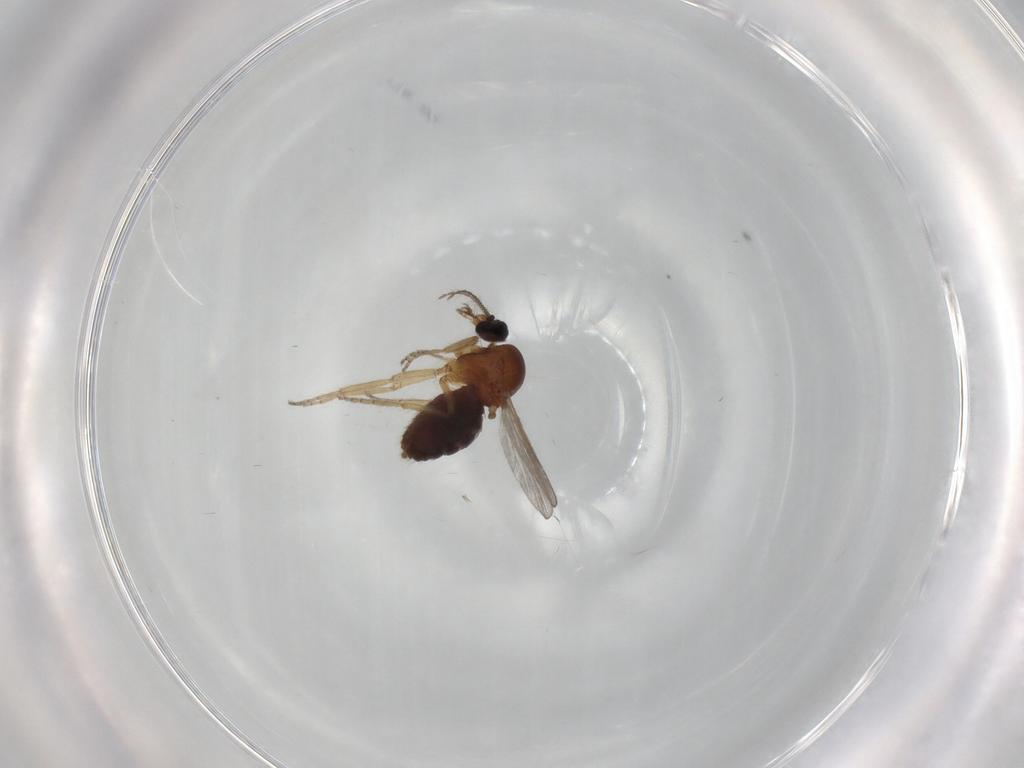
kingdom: Animalia
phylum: Arthropoda
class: Insecta
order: Diptera
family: Ceratopogonidae
